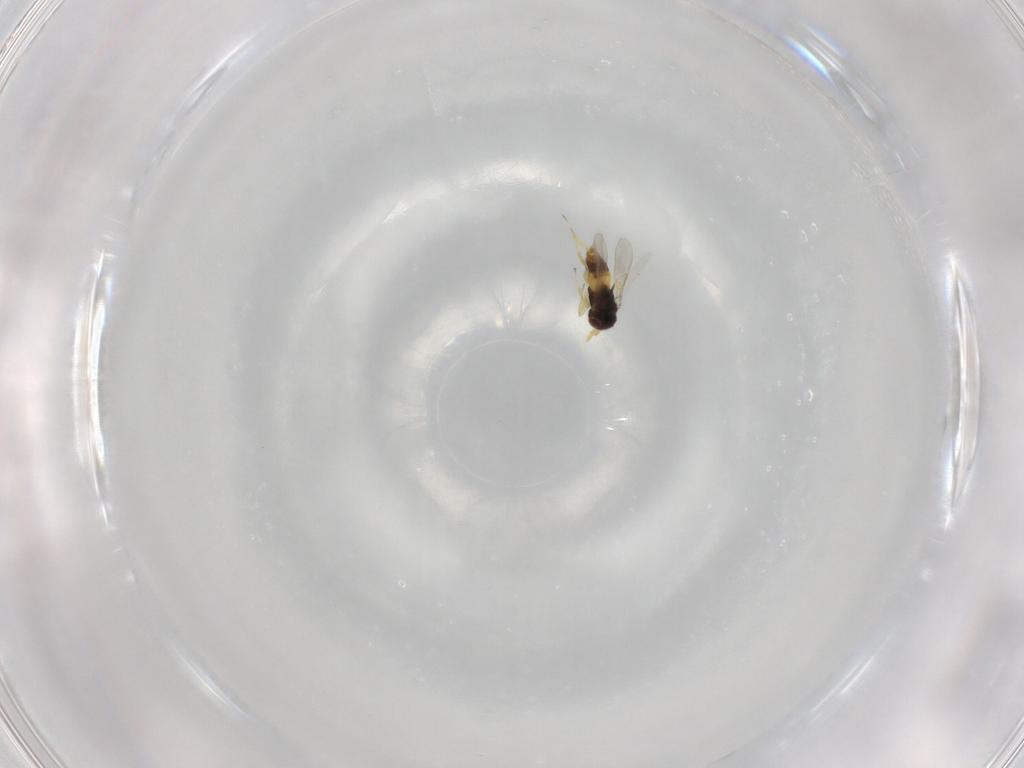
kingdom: Animalia
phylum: Arthropoda
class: Insecta
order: Hymenoptera
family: Aphelinidae
